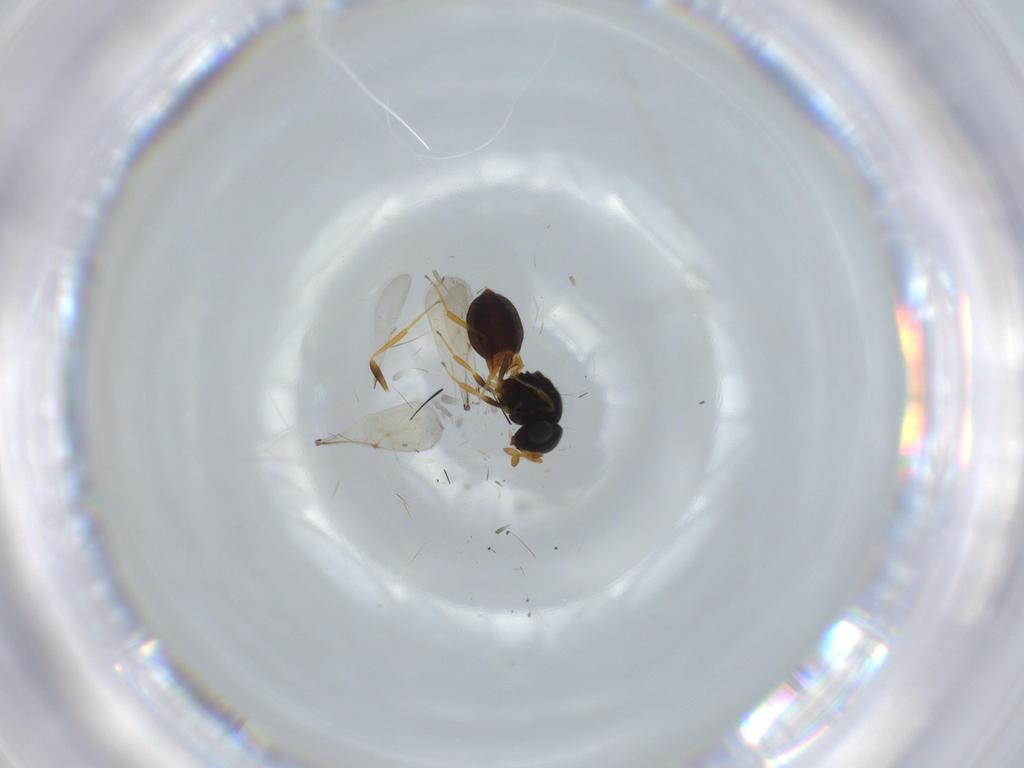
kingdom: Animalia
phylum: Arthropoda
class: Insecta
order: Hymenoptera
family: Scelionidae
